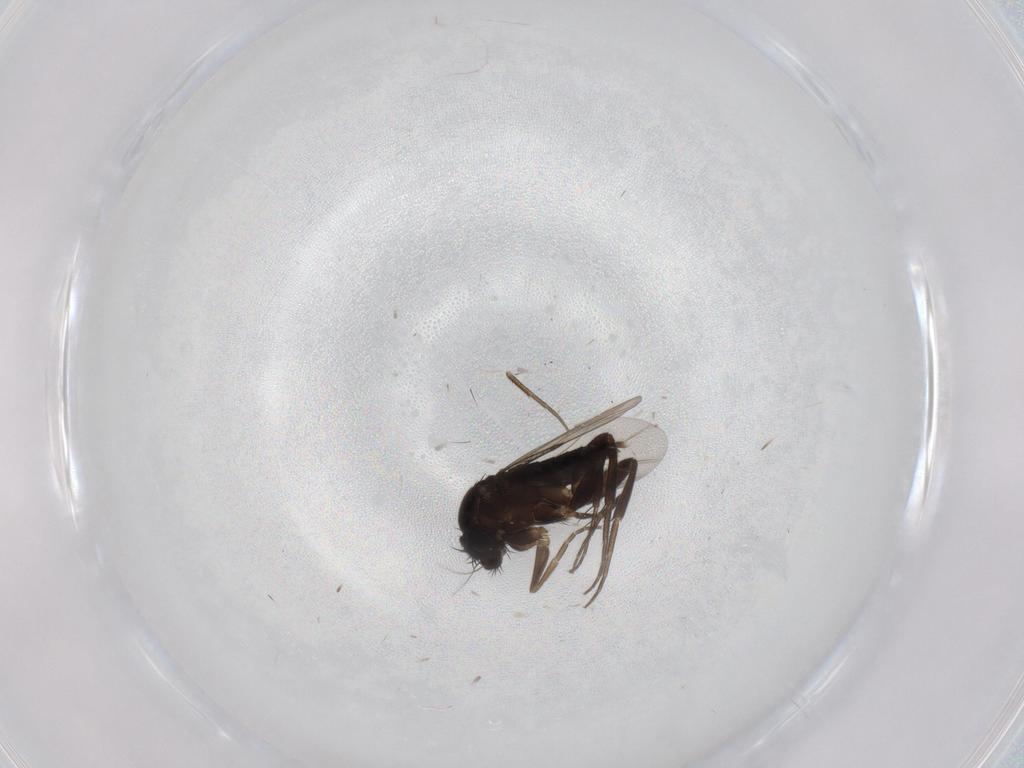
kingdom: Animalia
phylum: Arthropoda
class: Insecta
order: Diptera
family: Phoridae
